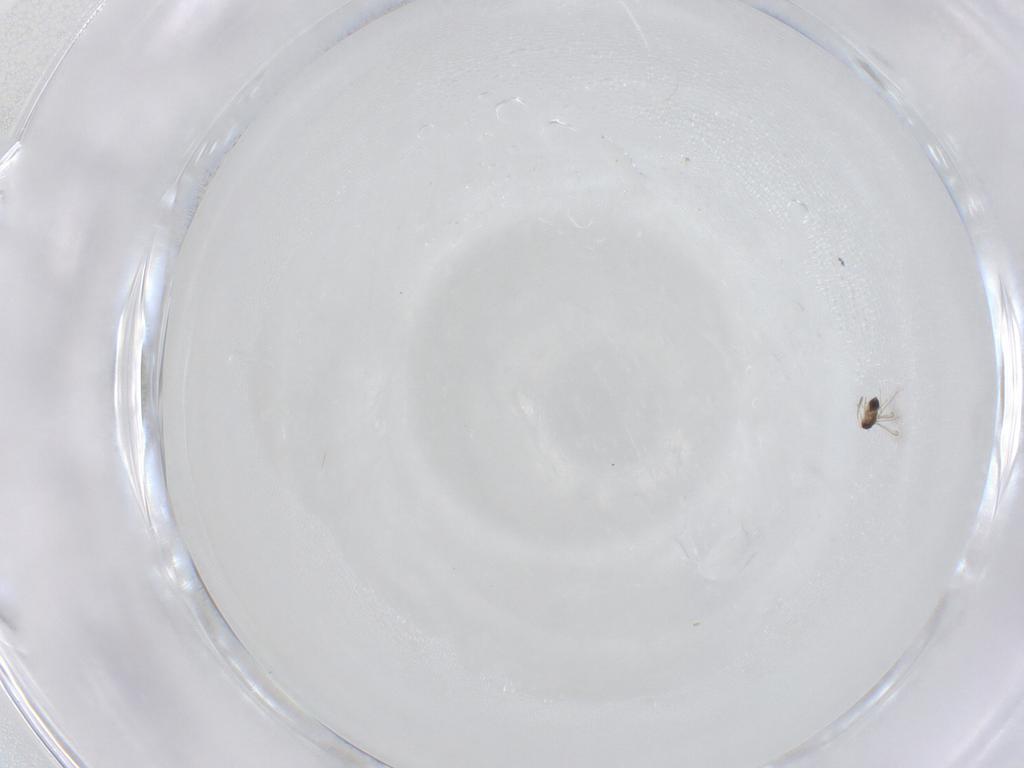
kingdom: Animalia
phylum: Arthropoda
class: Insecta
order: Hymenoptera
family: Mymaridae
